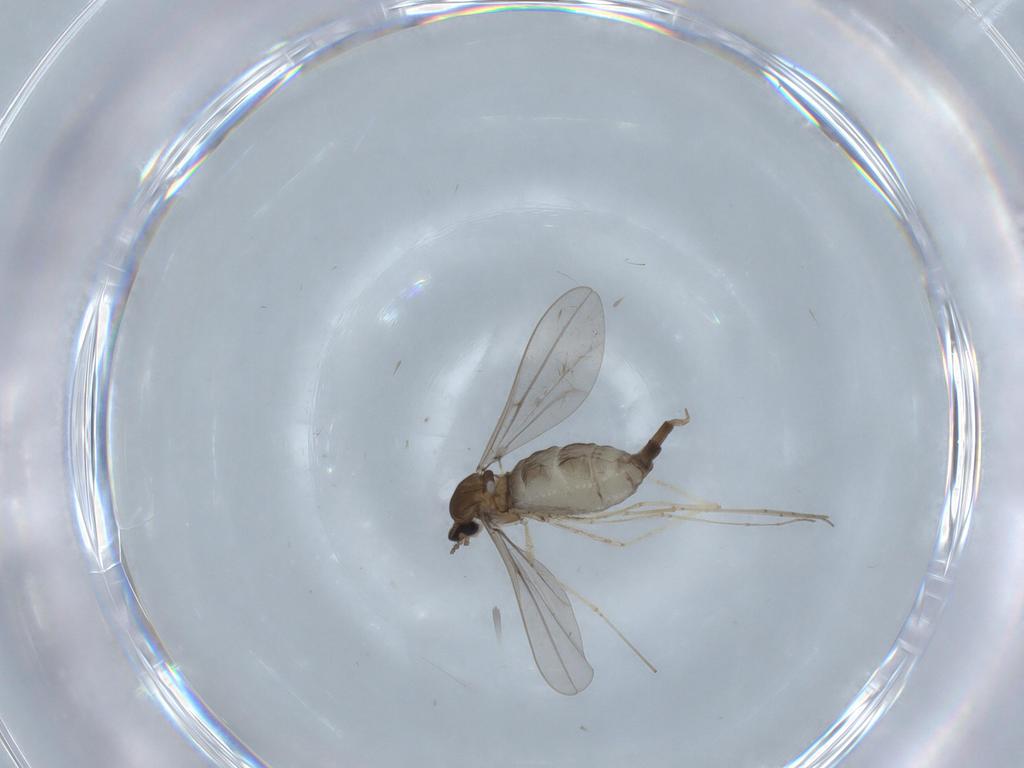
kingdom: Animalia
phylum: Arthropoda
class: Insecta
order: Diptera
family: Cecidomyiidae
